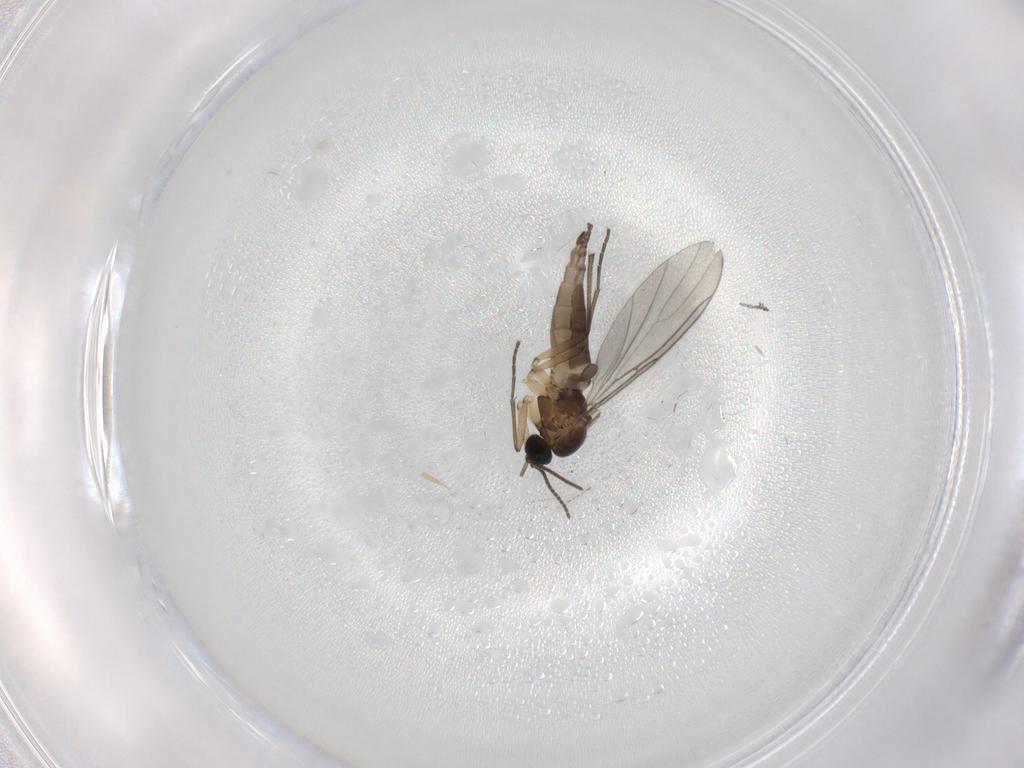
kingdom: Animalia
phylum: Arthropoda
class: Insecta
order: Diptera
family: Sciaridae
